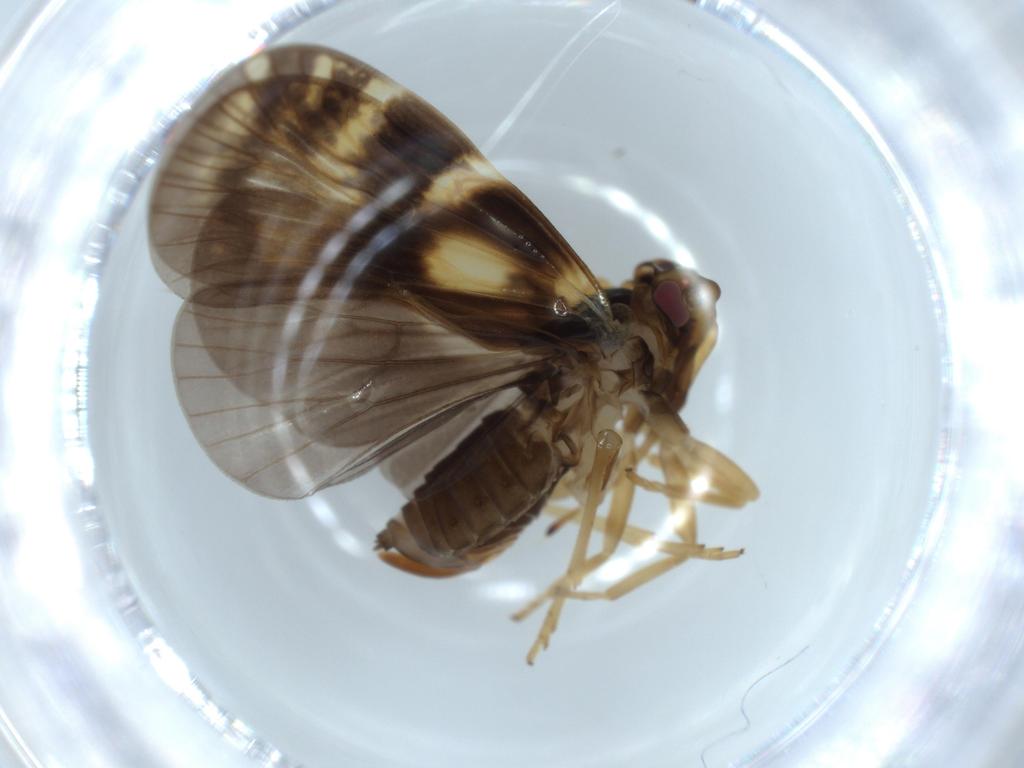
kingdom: Animalia
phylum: Arthropoda
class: Insecta
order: Hemiptera
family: Cixiidae
